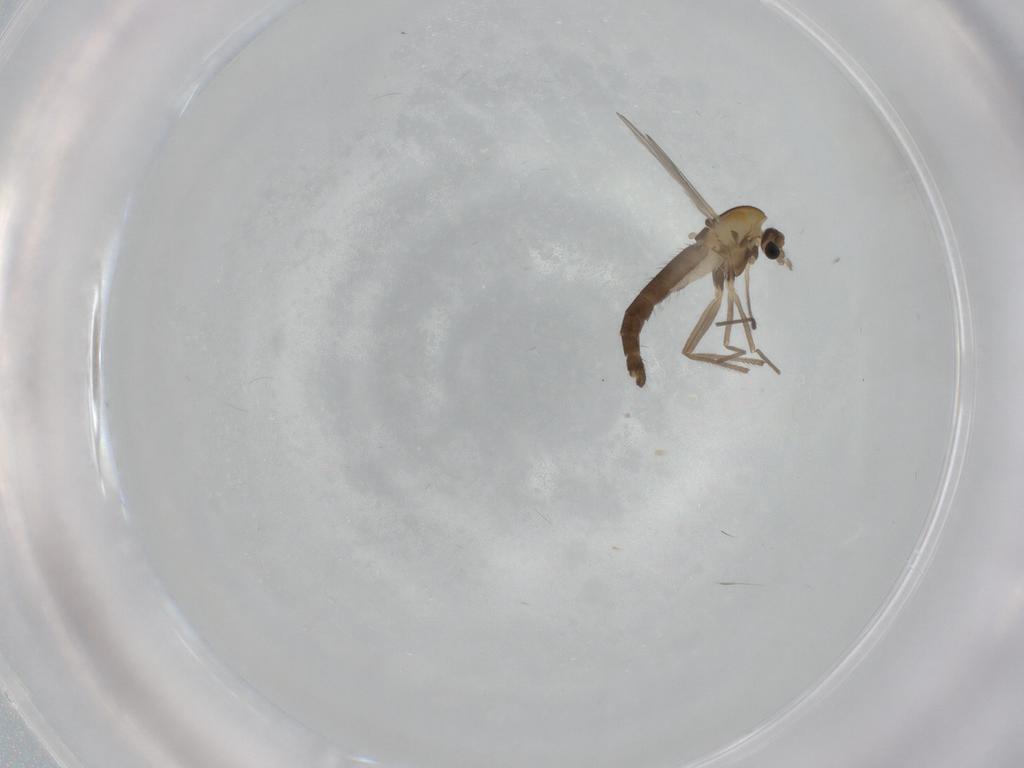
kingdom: Animalia
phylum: Arthropoda
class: Insecta
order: Diptera
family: Chironomidae
